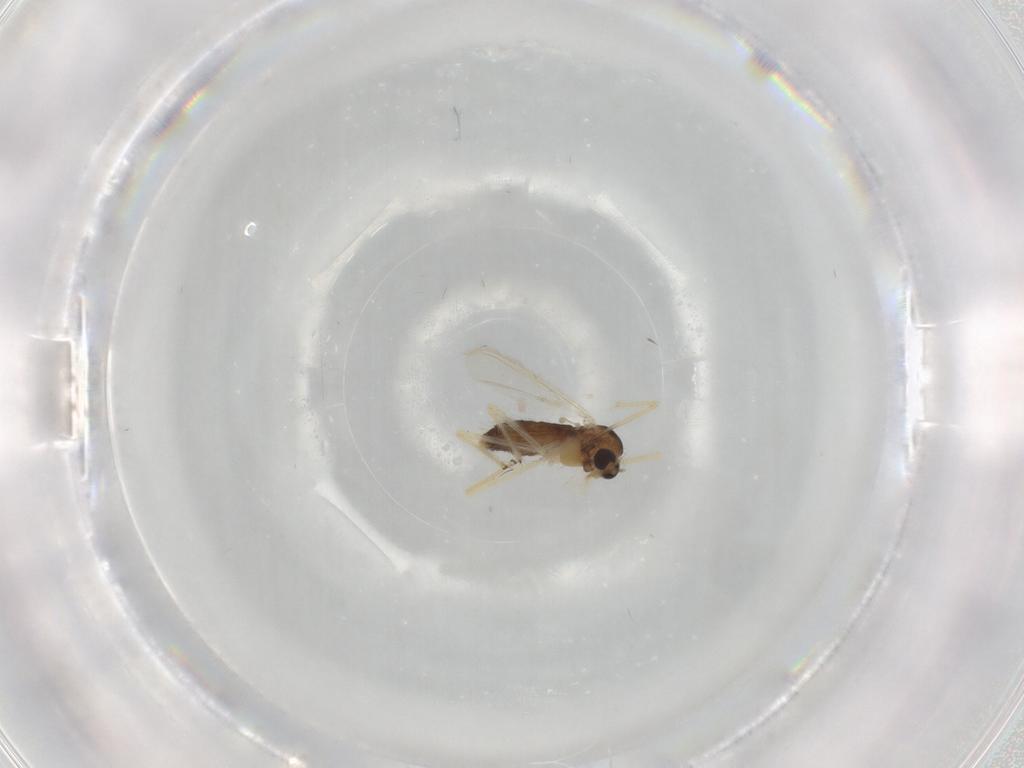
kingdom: Animalia
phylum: Arthropoda
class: Insecta
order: Diptera
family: Chironomidae
